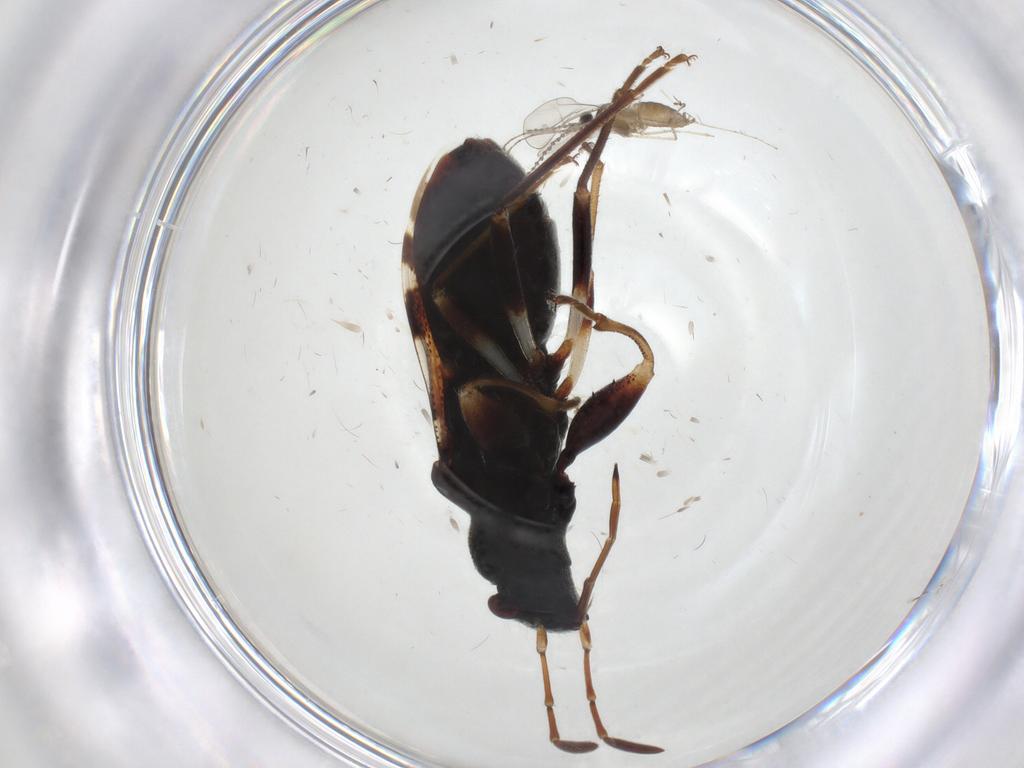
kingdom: Animalia
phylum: Arthropoda
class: Insecta
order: Hemiptera
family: Rhyparochromidae
